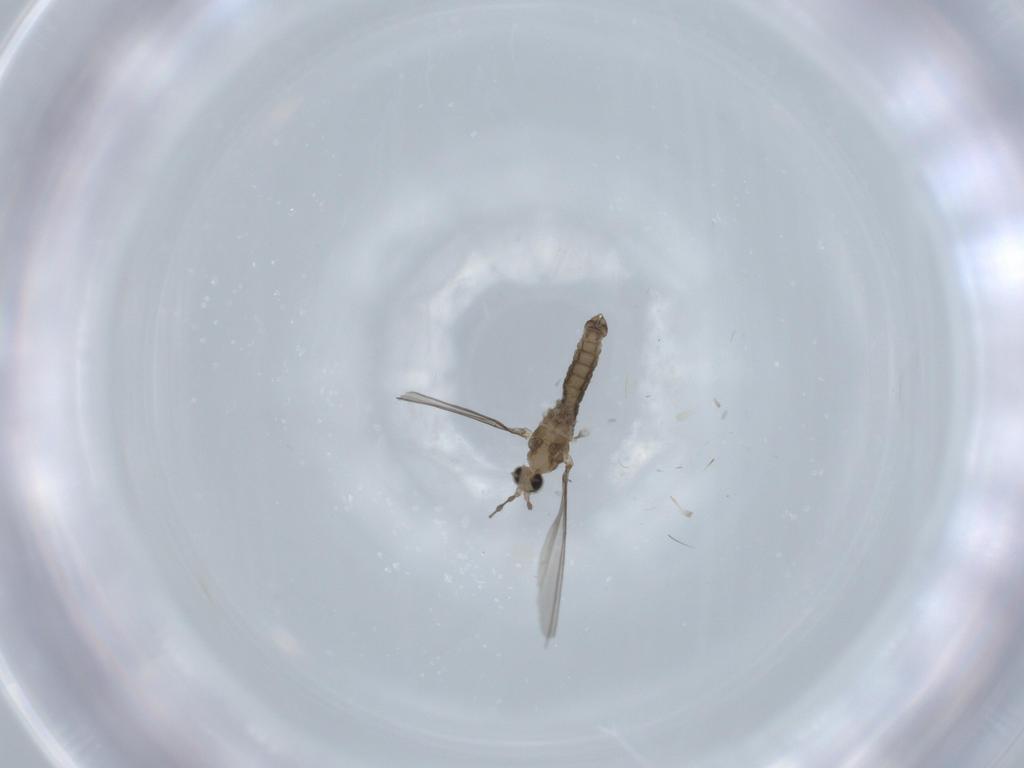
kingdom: Animalia
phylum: Arthropoda
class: Insecta
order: Diptera
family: Cecidomyiidae
